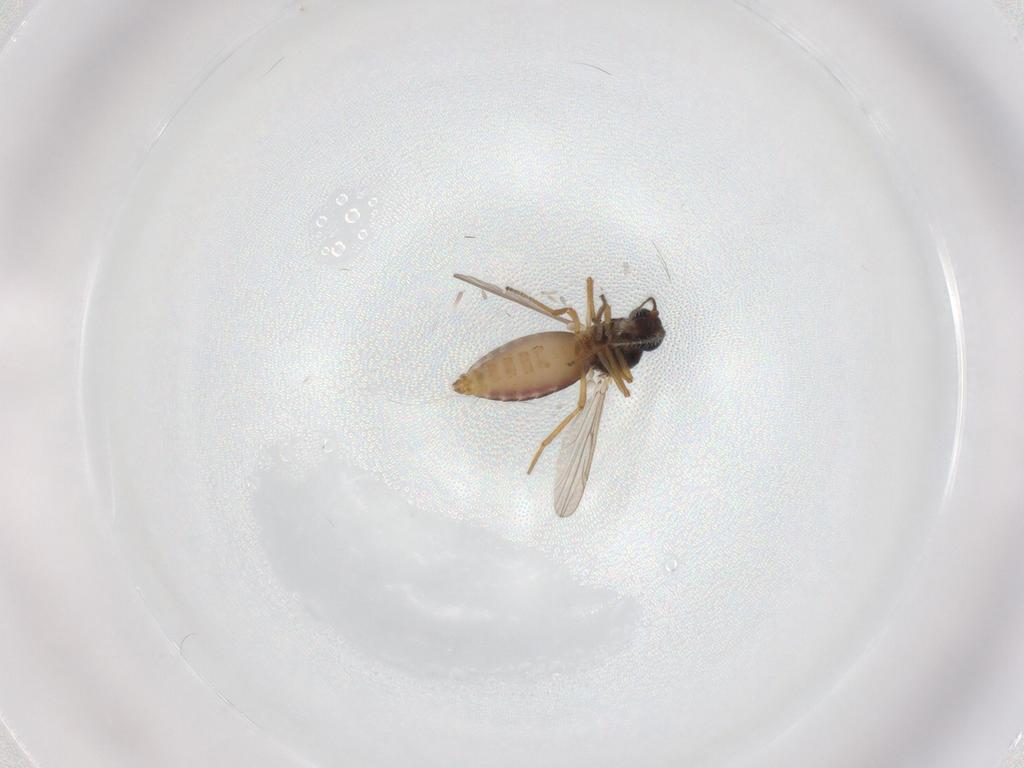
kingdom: Animalia
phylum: Arthropoda
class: Insecta
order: Diptera
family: Ceratopogonidae
